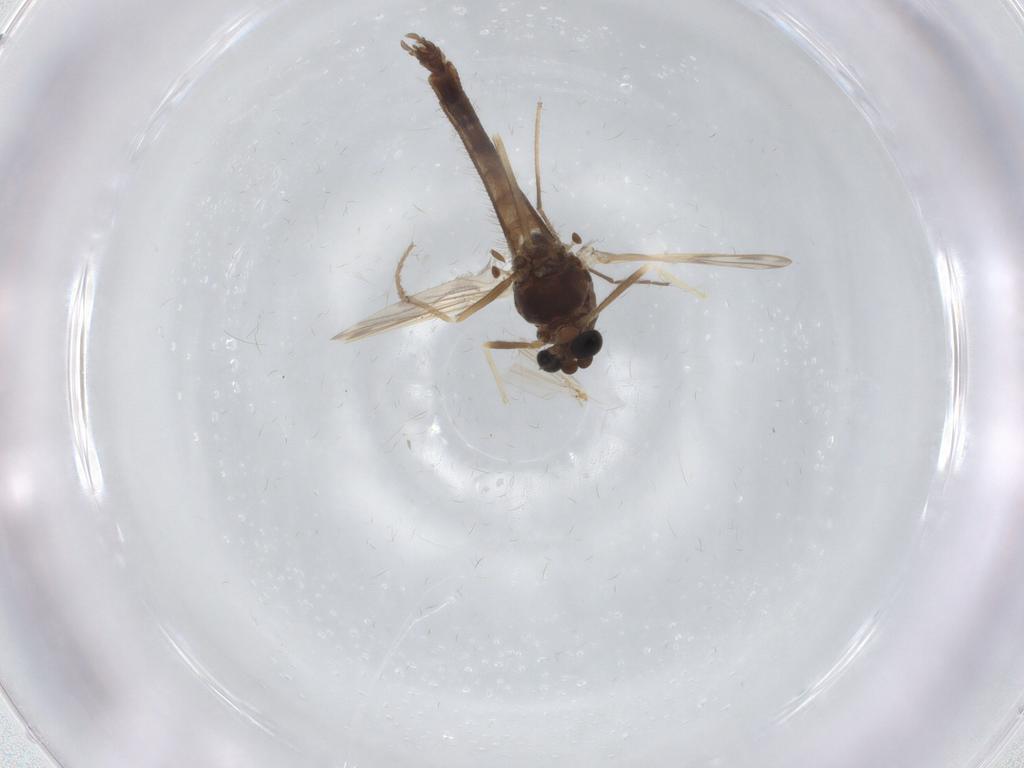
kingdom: Animalia
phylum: Arthropoda
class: Insecta
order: Diptera
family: Chironomidae
